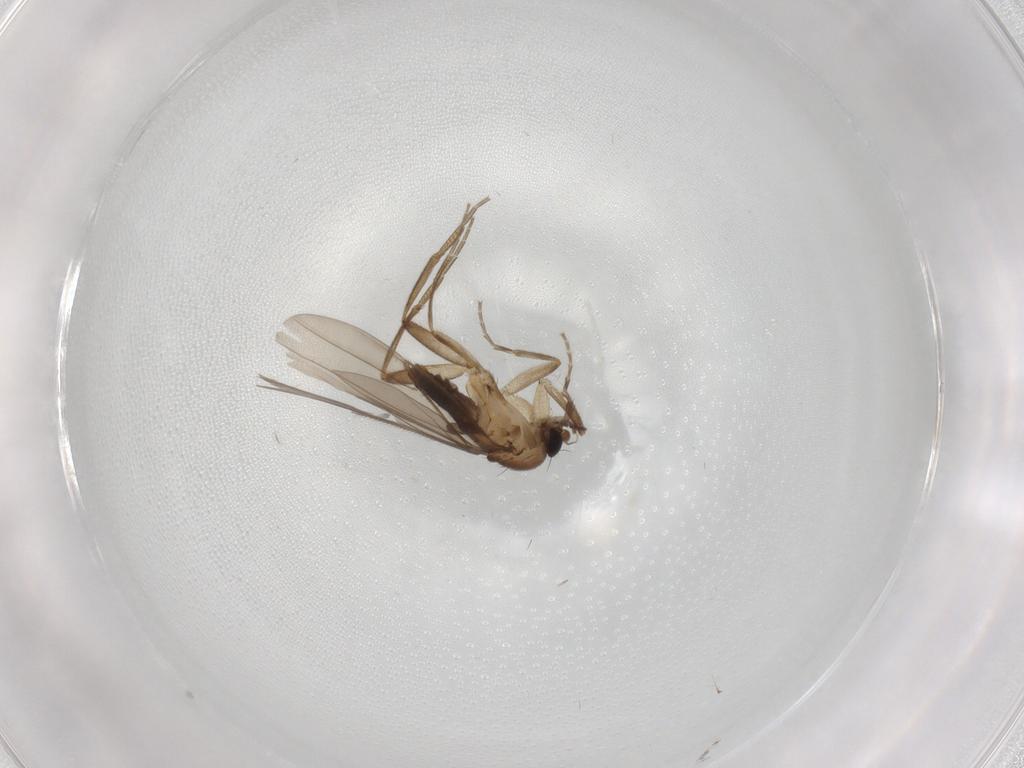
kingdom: Animalia
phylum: Arthropoda
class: Insecta
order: Diptera
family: Sciaridae
